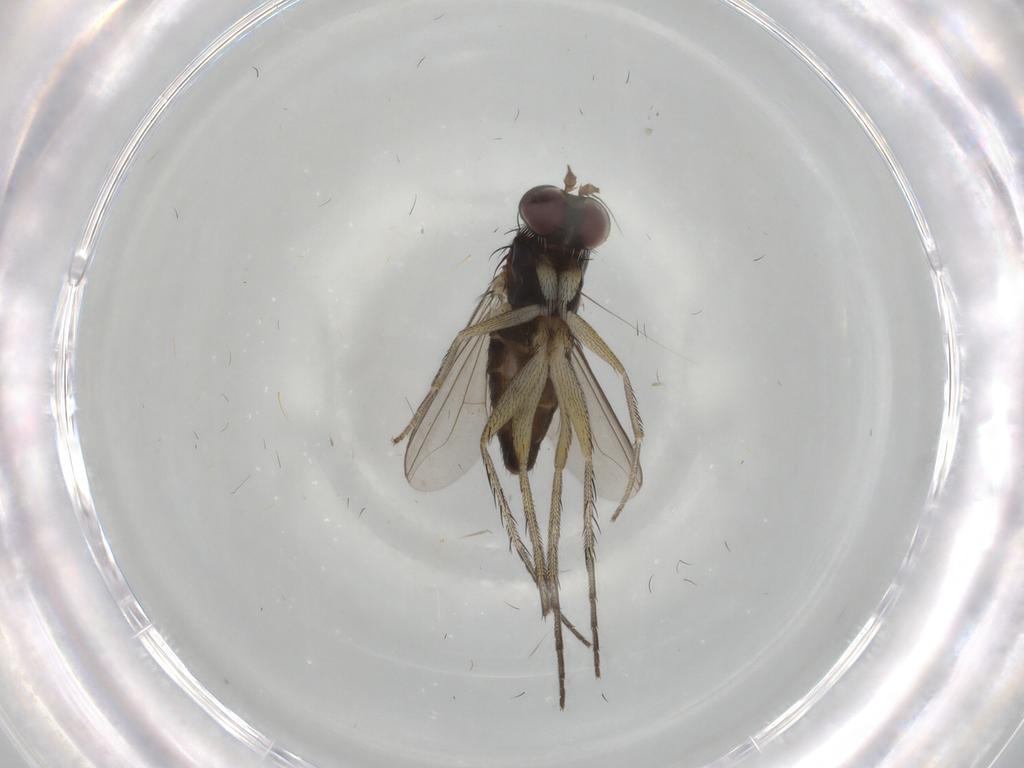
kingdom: Animalia
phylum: Arthropoda
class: Insecta
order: Diptera
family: Dolichopodidae
